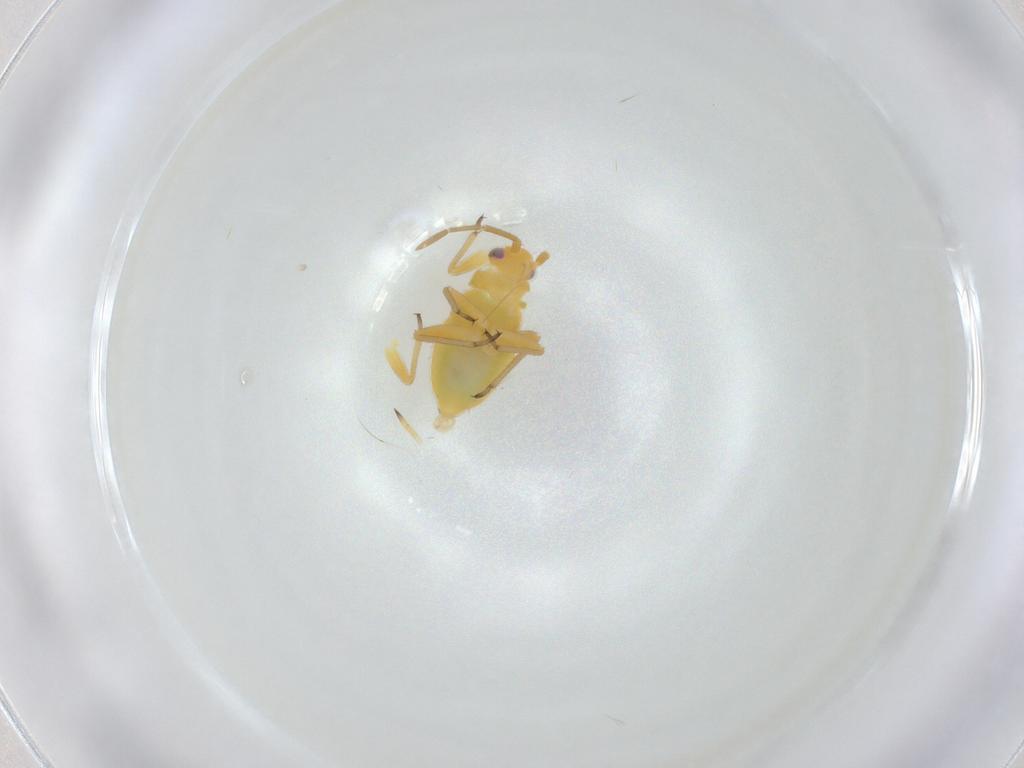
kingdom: Animalia
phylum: Arthropoda
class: Insecta
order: Hemiptera
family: Miridae
